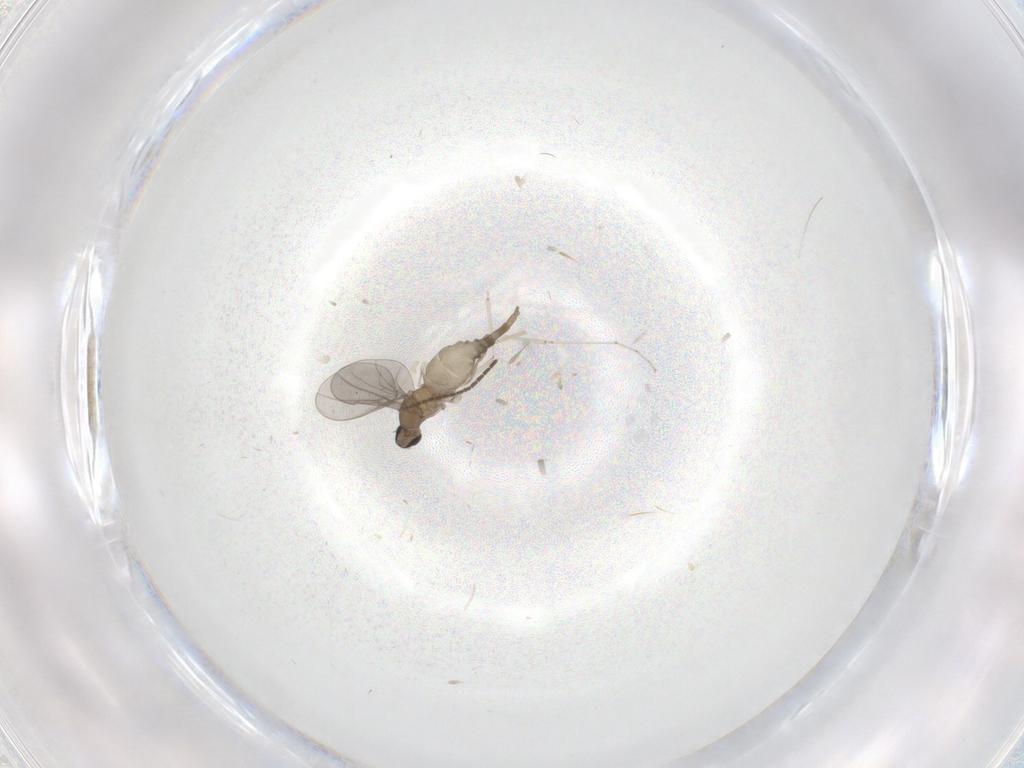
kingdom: Animalia
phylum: Arthropoda
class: Insecta
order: Diptera
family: Cecidomyiidae
